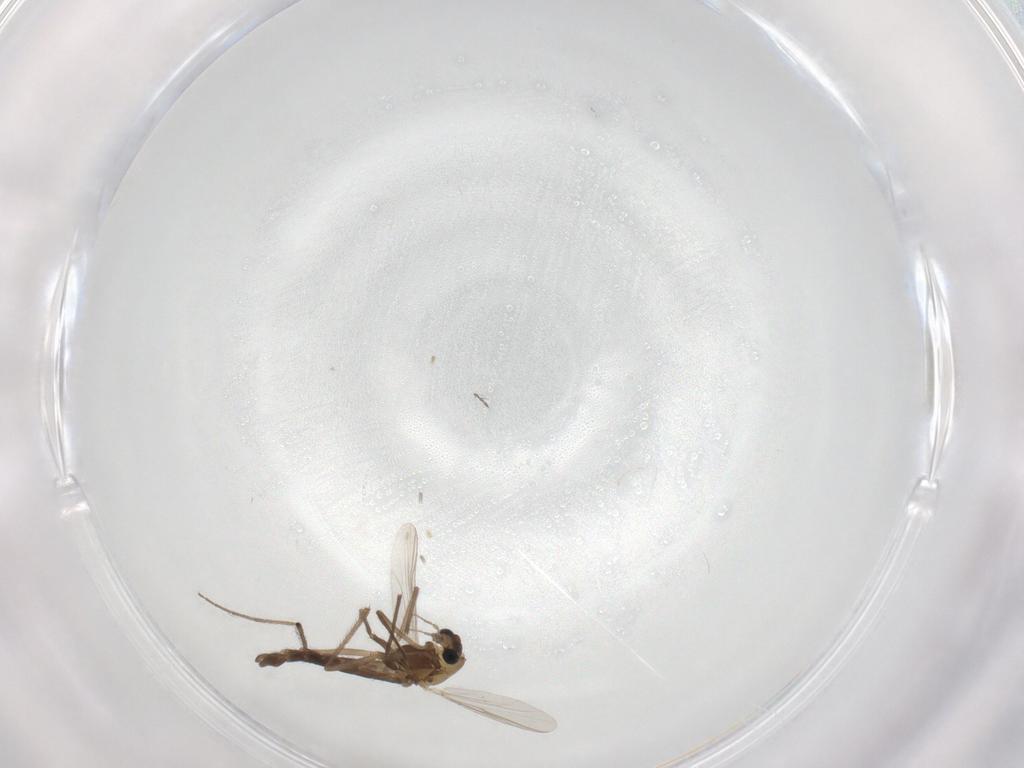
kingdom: Animalia
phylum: Arthropoda
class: Insecta
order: Diptera
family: Chironomidae
